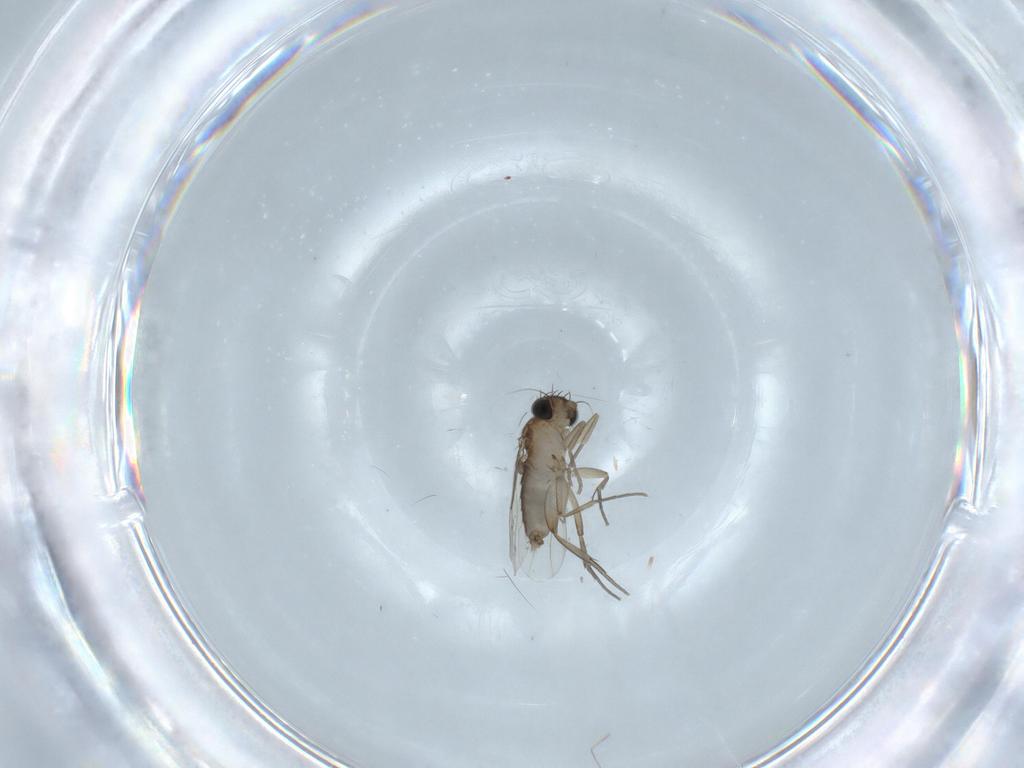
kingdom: Animalia
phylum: Arthropoda
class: Insecta
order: Diptera
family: Phoridae
